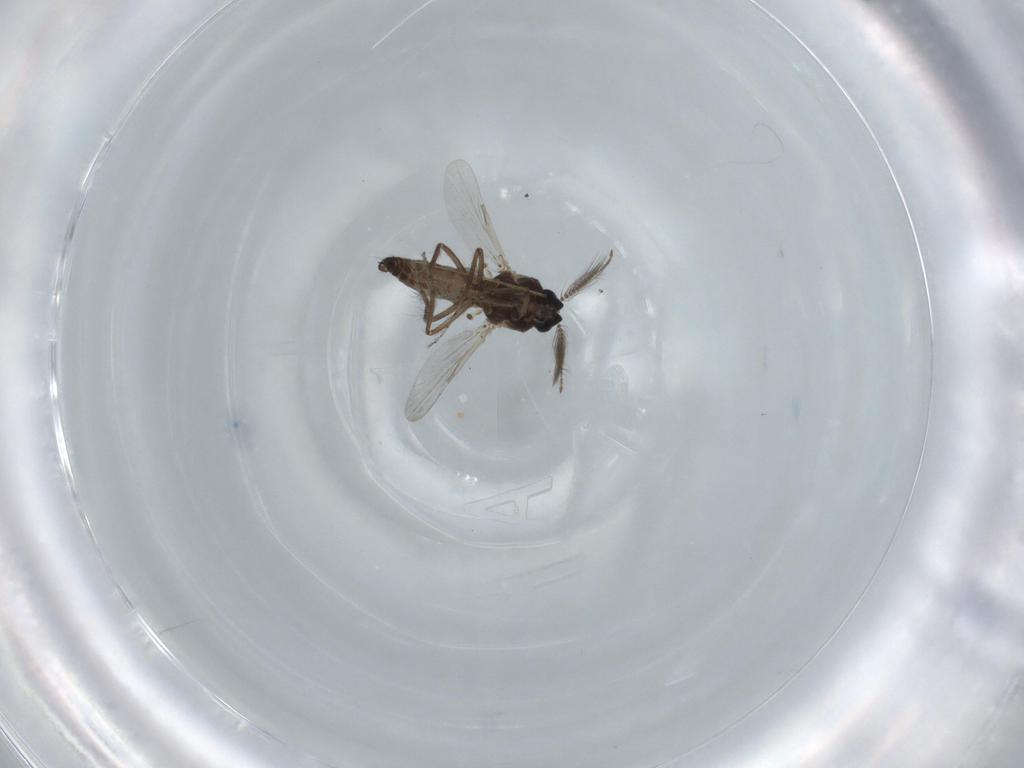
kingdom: Animalia
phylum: Arthropoda
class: Insecta
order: Diptera
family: Ceratopogonidae
